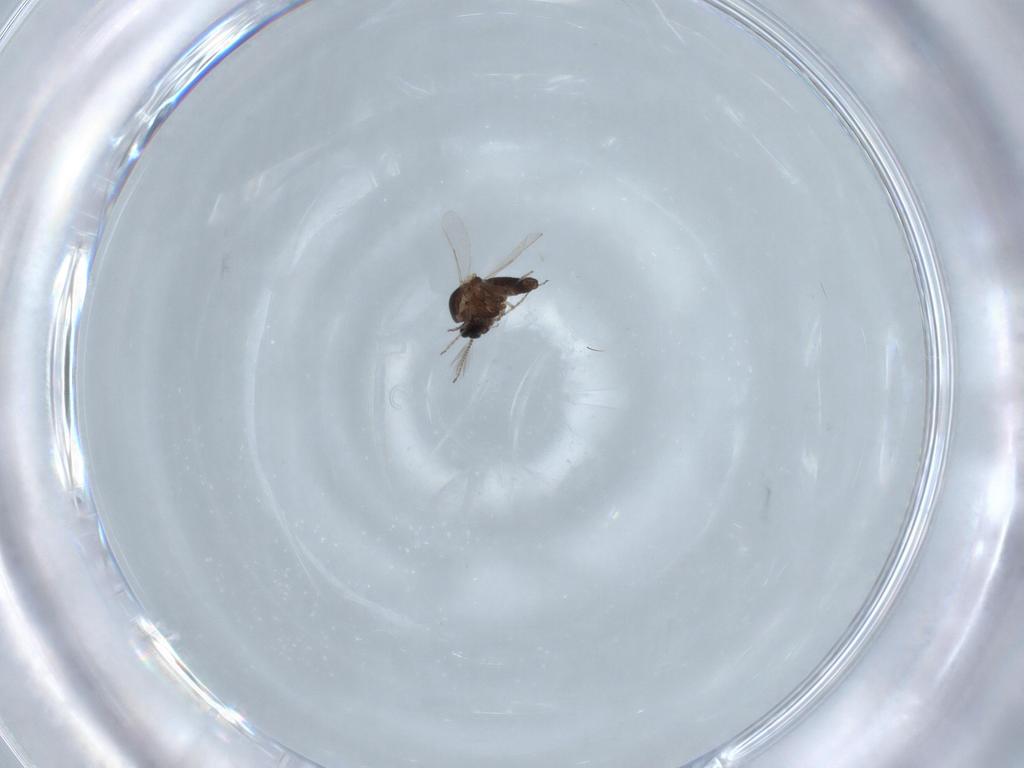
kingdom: Animalia
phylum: Arthropoda
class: Insecta
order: Diptera
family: Ceratopogonidae
